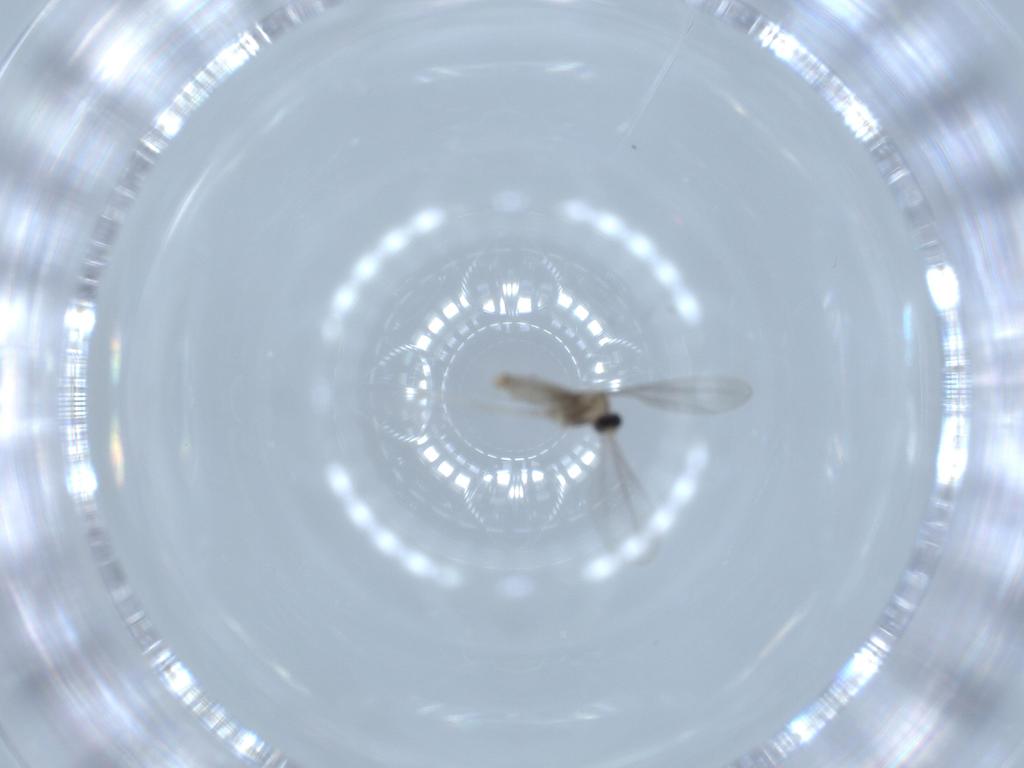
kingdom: Animalia
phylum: Arthropoda
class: Insecta
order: Diptera
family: Cecidomyiidae
